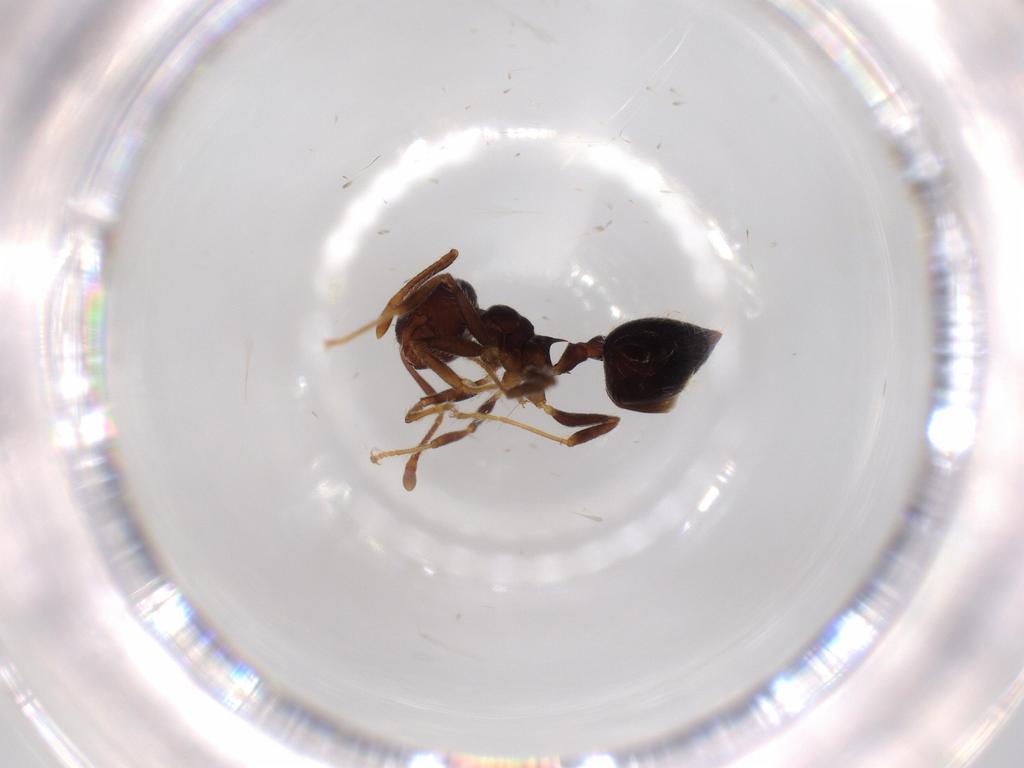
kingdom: Animalia
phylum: Arthropoda
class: Insecta
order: Hymenoptera
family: Formicidae
